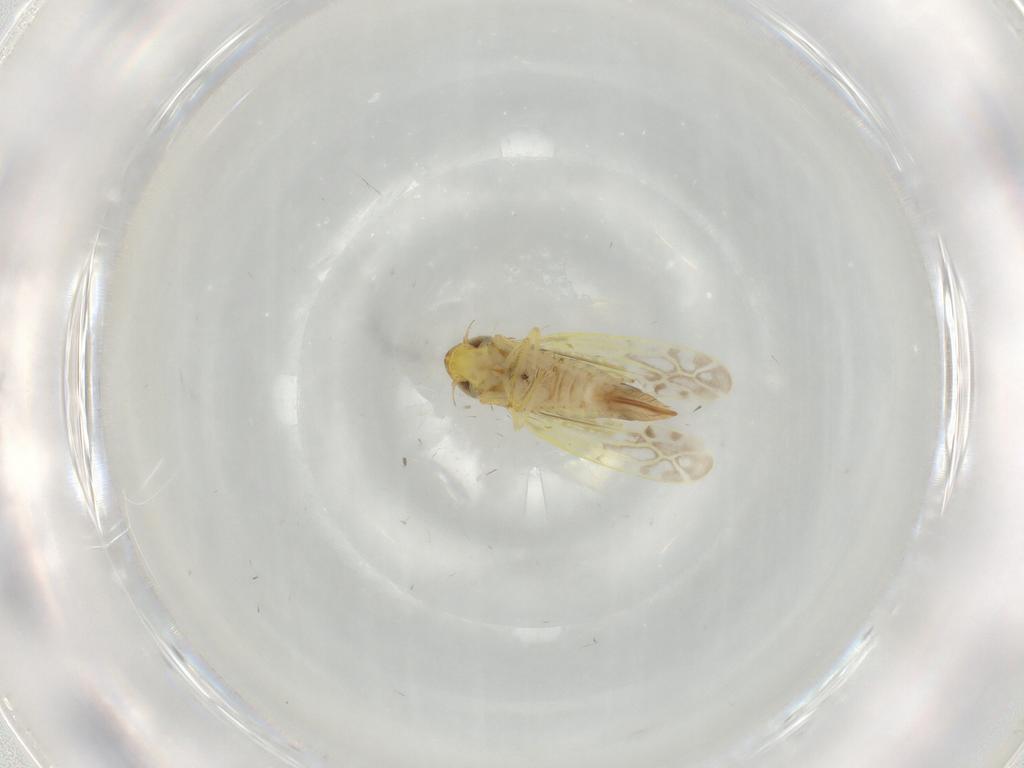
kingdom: Animalia
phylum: Arthropoda
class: Insecta
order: Hemiptera
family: Cicadellidae
